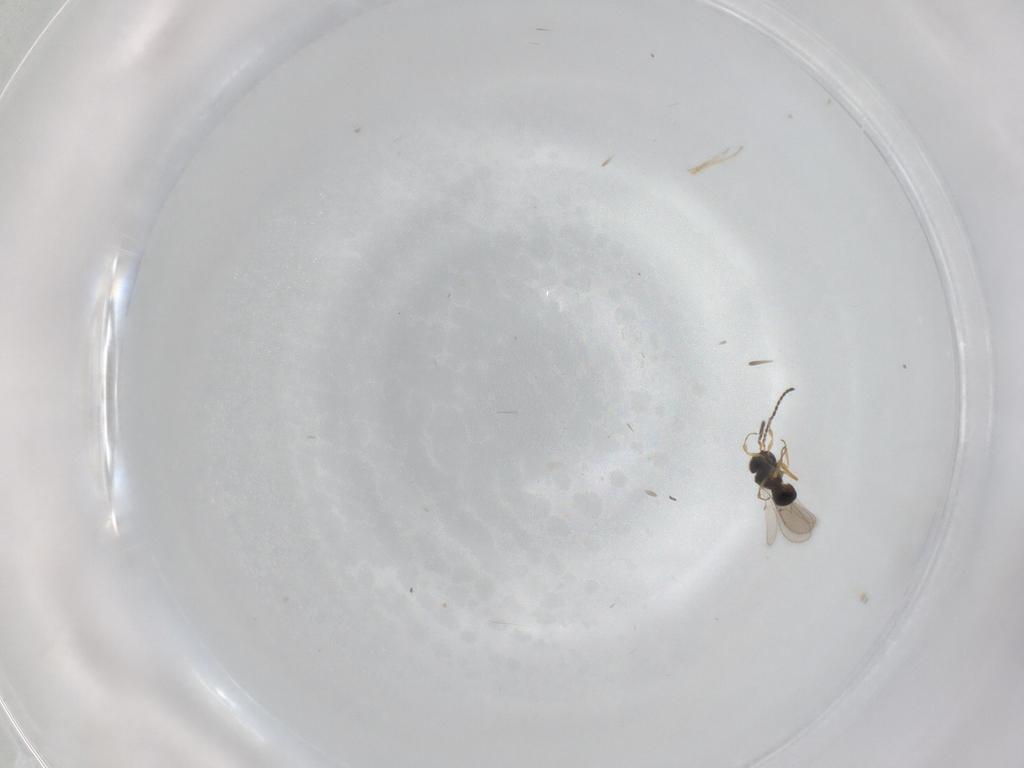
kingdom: Animalia
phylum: Arthropoda
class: Insecta
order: Hymenoptera
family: Scelionidae
